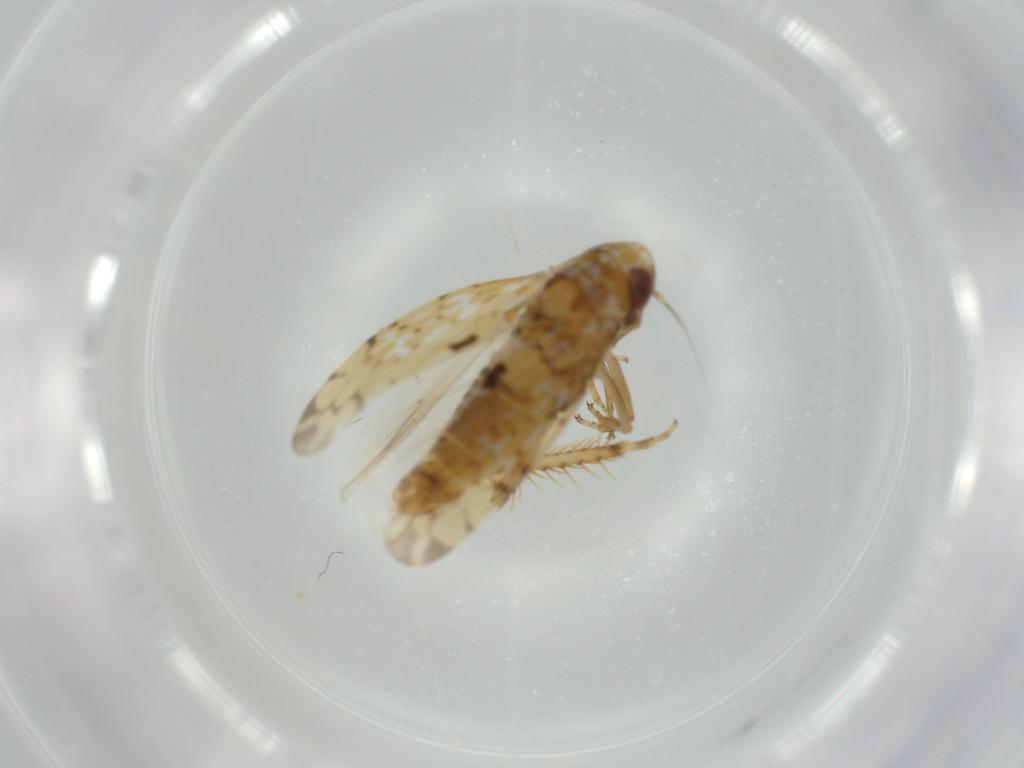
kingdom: Animalia
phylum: Arthropoda
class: Insecta
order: Hemiptera
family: Cicadellidae
